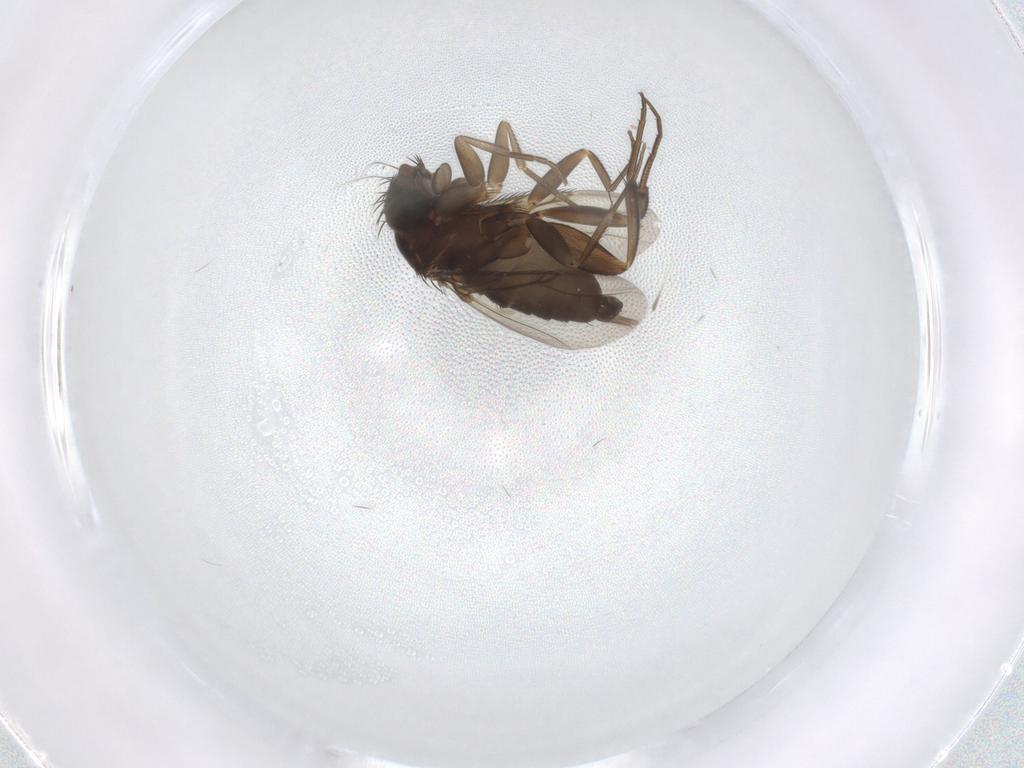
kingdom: Animalia
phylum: Arthropoda
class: Insecta
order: Diptera
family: Phoridae
